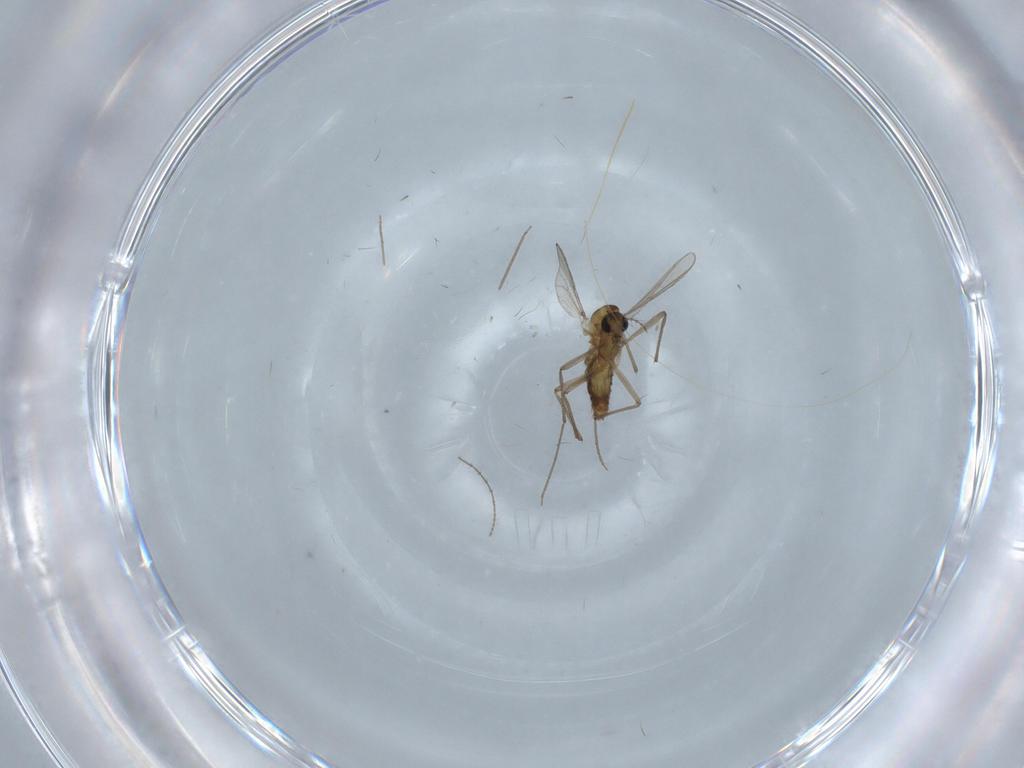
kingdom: Animalia
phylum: Arthropoda
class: Insecta
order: Diptera
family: Ceratopogonidae
